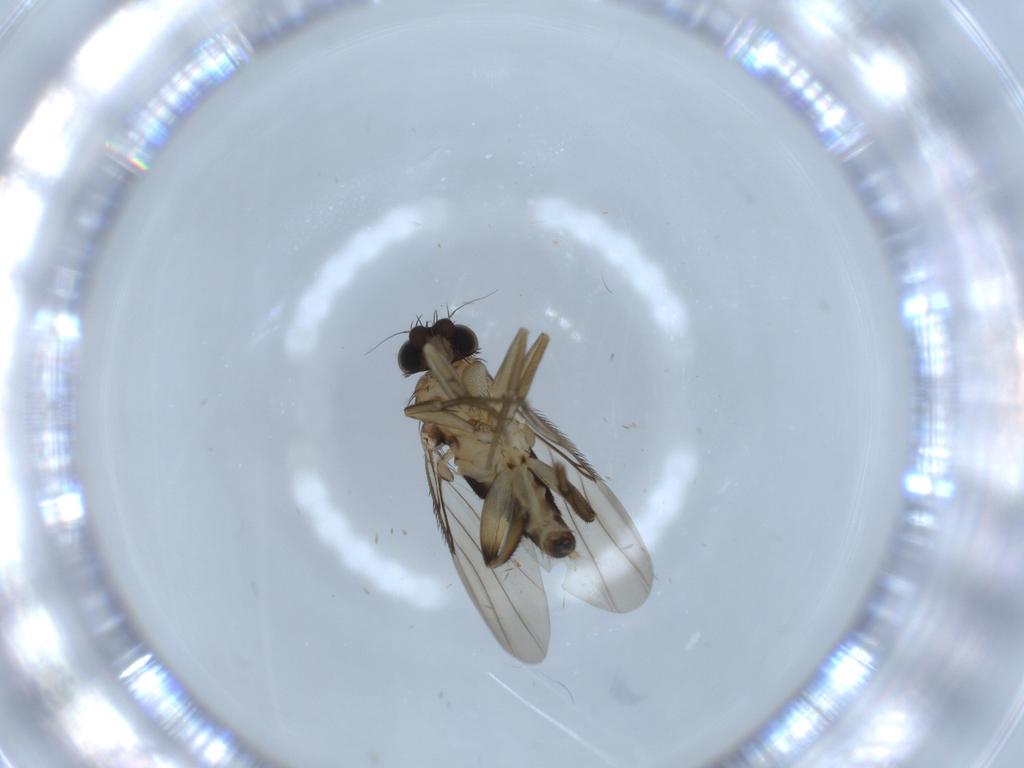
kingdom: Animalia
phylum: Arthropoda
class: Insecta
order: Diptera
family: Phoridae
